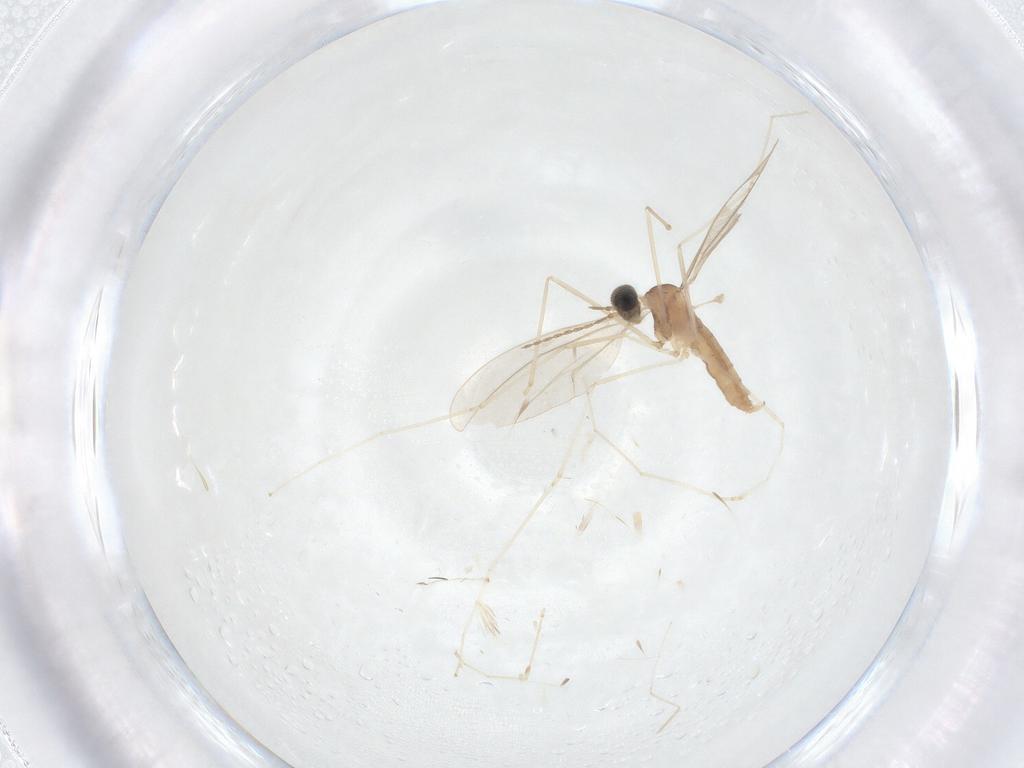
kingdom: Animalia
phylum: Arthropoda
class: Insecta
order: Diptera
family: Cecidomyiidae
